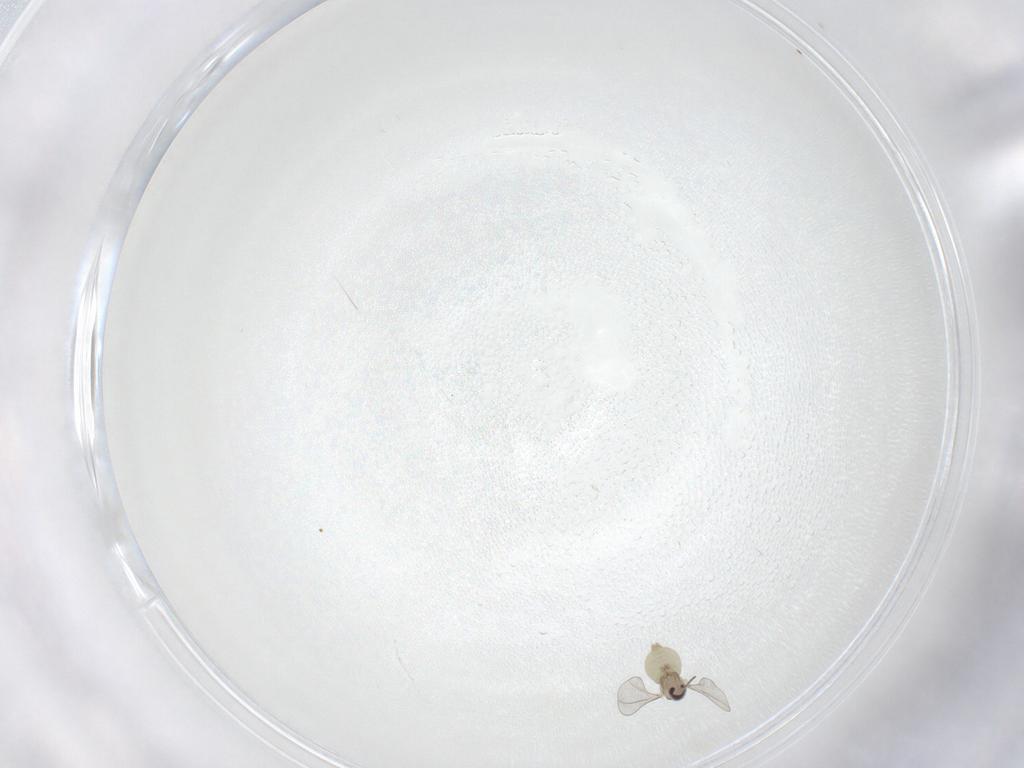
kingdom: Animalia
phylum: Arthropoda
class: Insecta
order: Diptera
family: Cecidomyiidae
